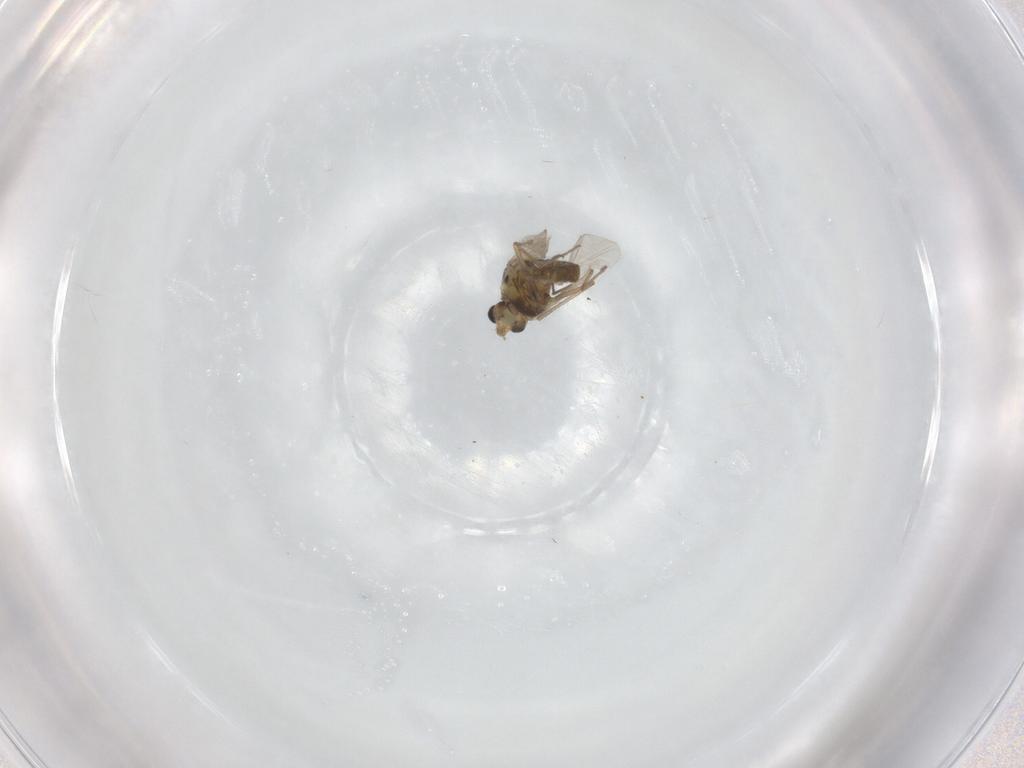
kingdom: Animalia
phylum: Arthropoda
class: Insecta
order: Diptera
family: Chironomidae
